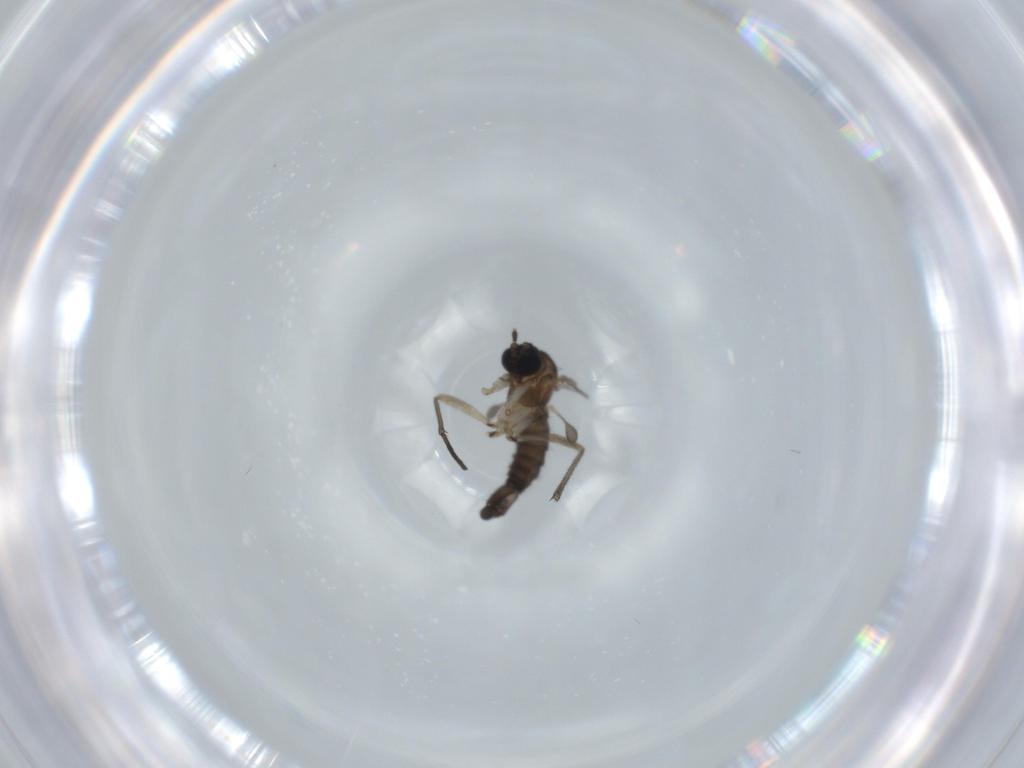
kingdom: Animalia
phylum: Arthropoda
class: Insecta
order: Diptera
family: Sciaridae
